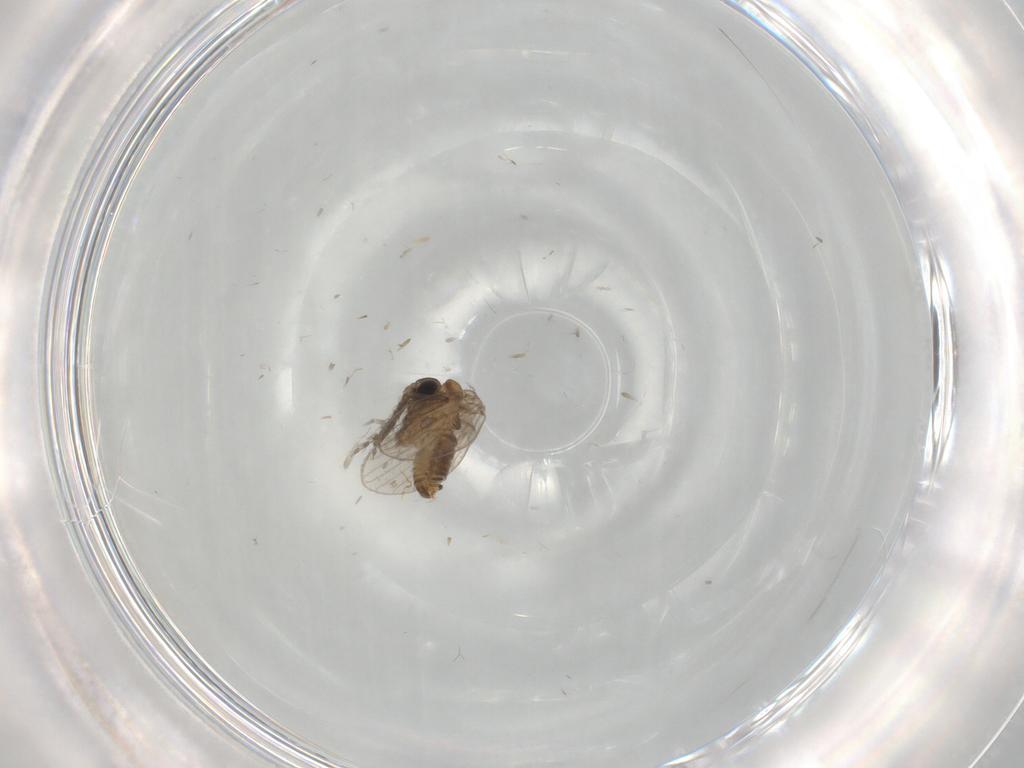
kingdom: Animalia
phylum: Arthropoda
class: Insecta
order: Diptera
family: Psychodidae
